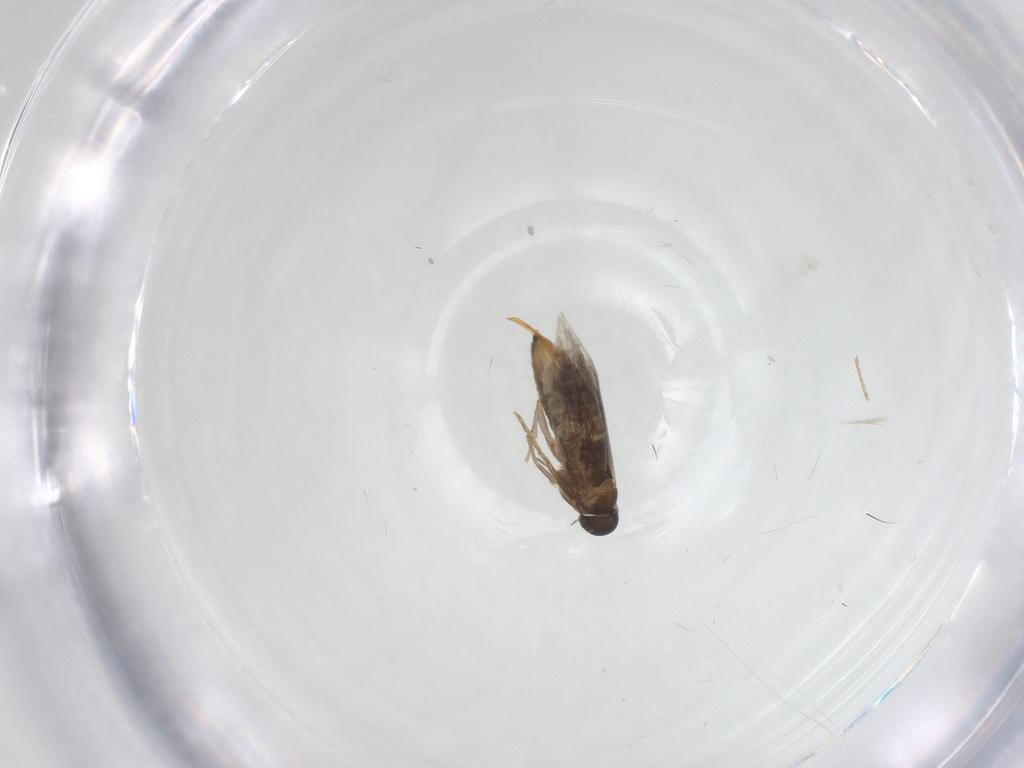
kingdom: Animalia
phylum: Arthropoda
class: Insecta
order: Lepidoptera
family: Heliozelidae
